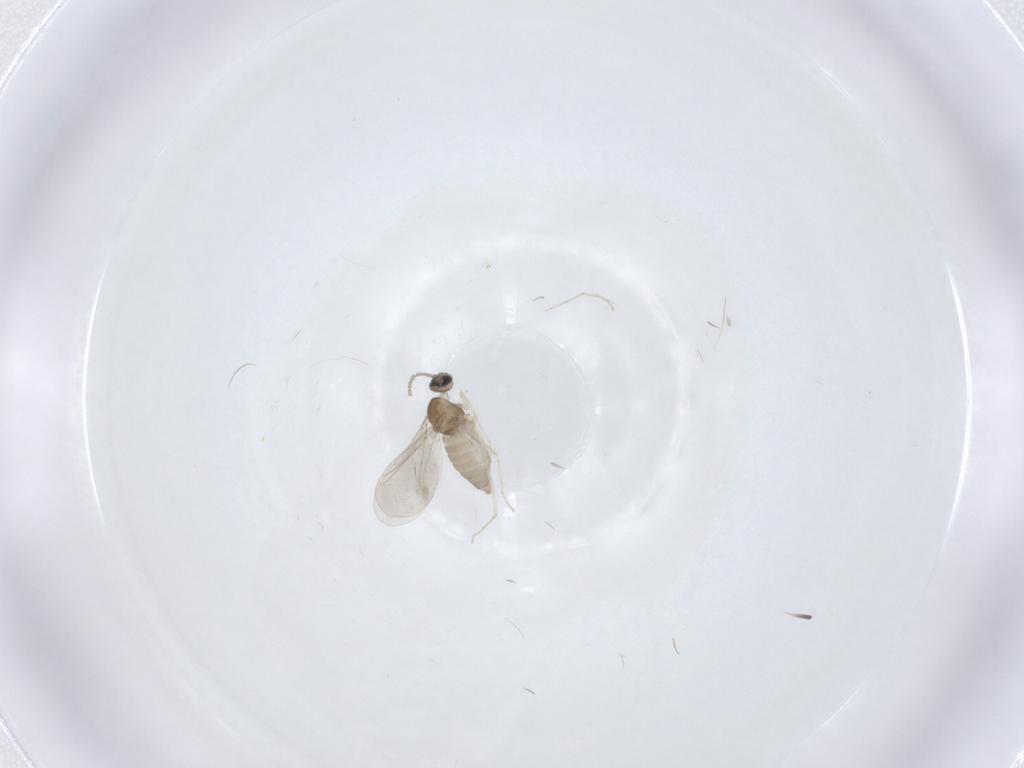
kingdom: Animalia
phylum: Arthropoda
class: Insecta
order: Diptera
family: Cecidomyiidae
